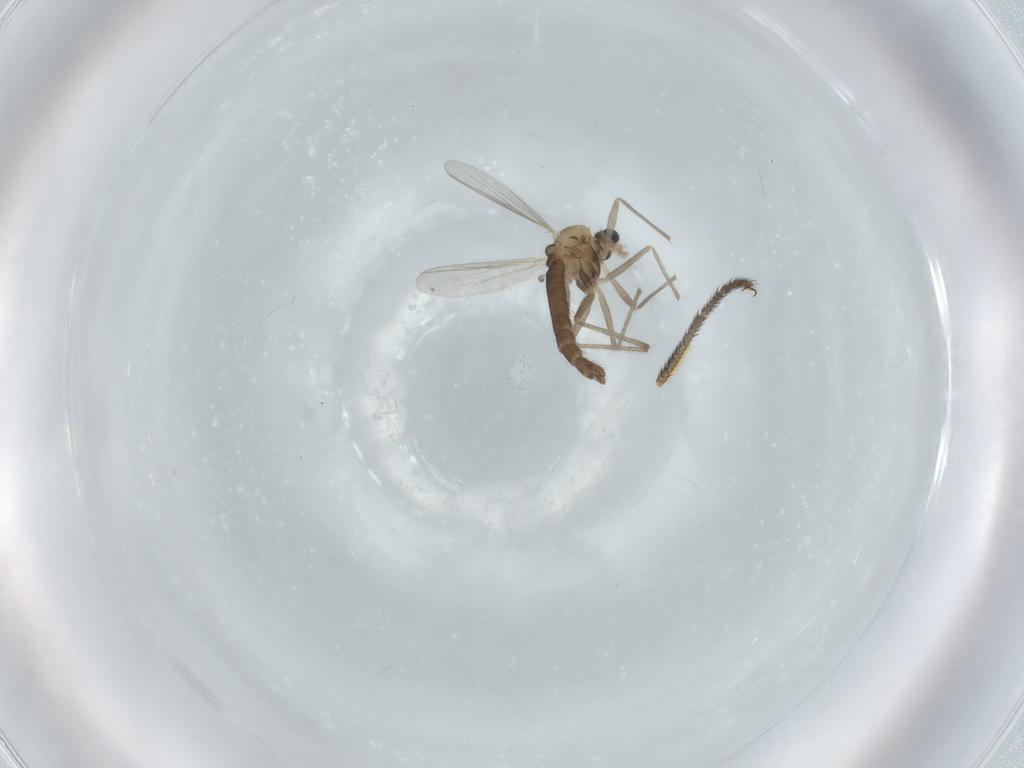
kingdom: Animalia
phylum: Arthropoda
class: Insecta
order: Diptera
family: Chironomidae
